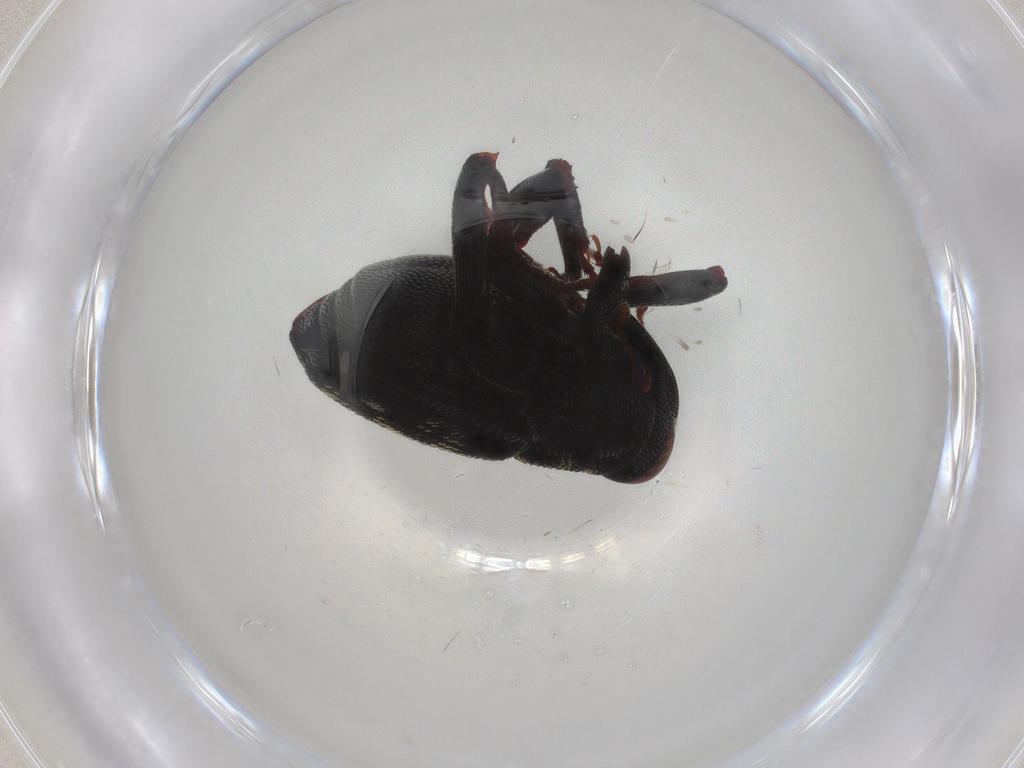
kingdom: Animalia
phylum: Arthropoda
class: Insecta
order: Coleoptera
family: Curculionidae
